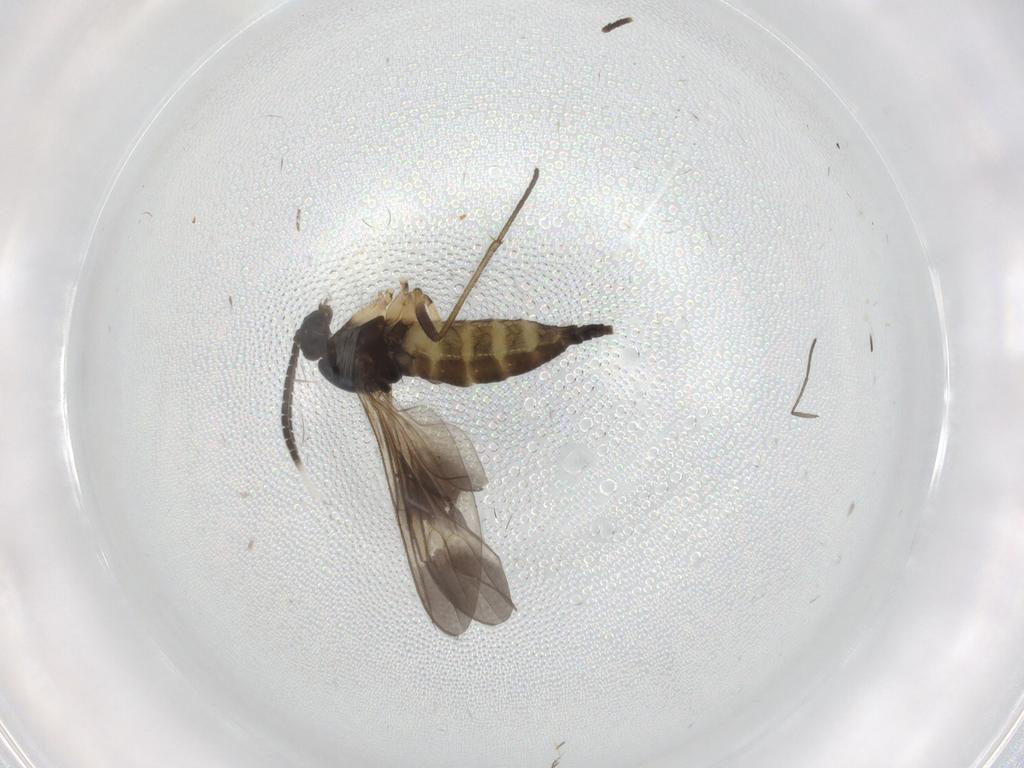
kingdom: Animalia
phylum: Arthropoda
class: Insecta
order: Diptera
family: Sciaridae
